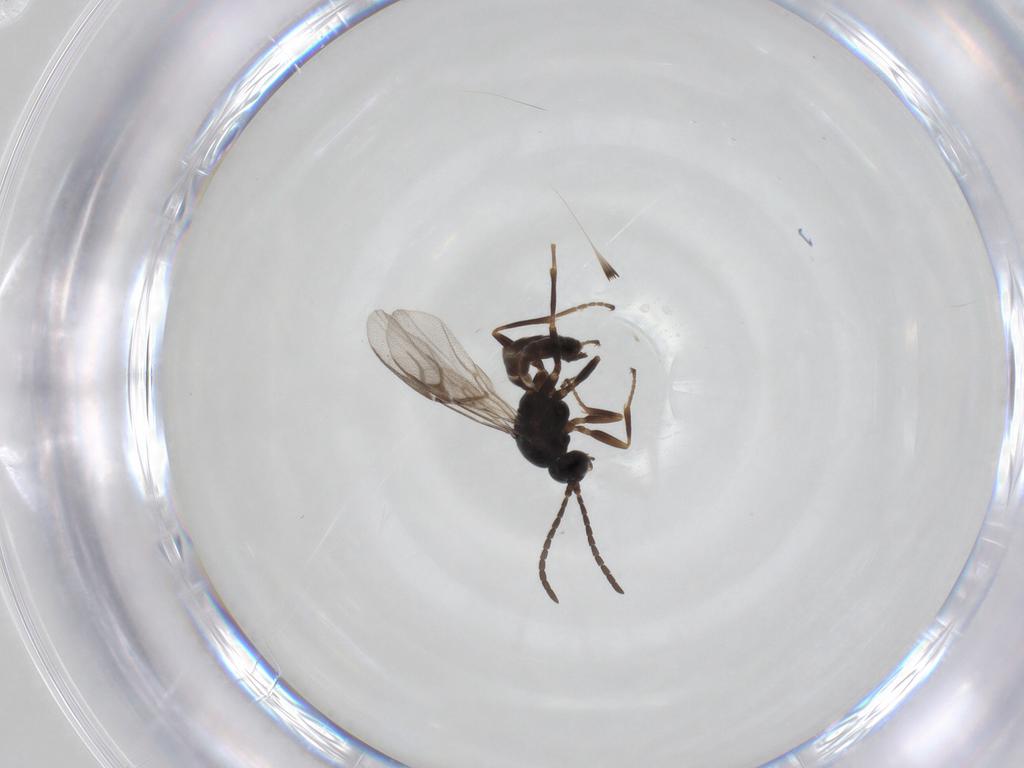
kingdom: Animalia
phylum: Arthropoda
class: Insecta
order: Hymenoptera
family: Braconidae
